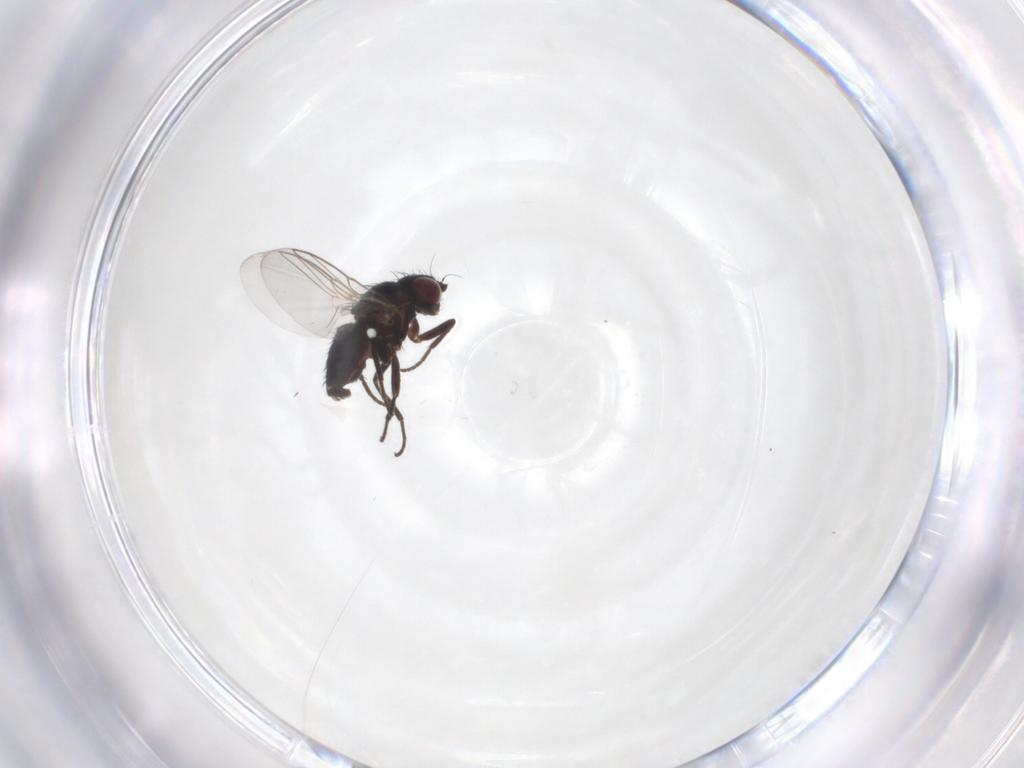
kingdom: Animalia
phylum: Arthropoda
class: Insecta
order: Diptera
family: Agromyzidae
